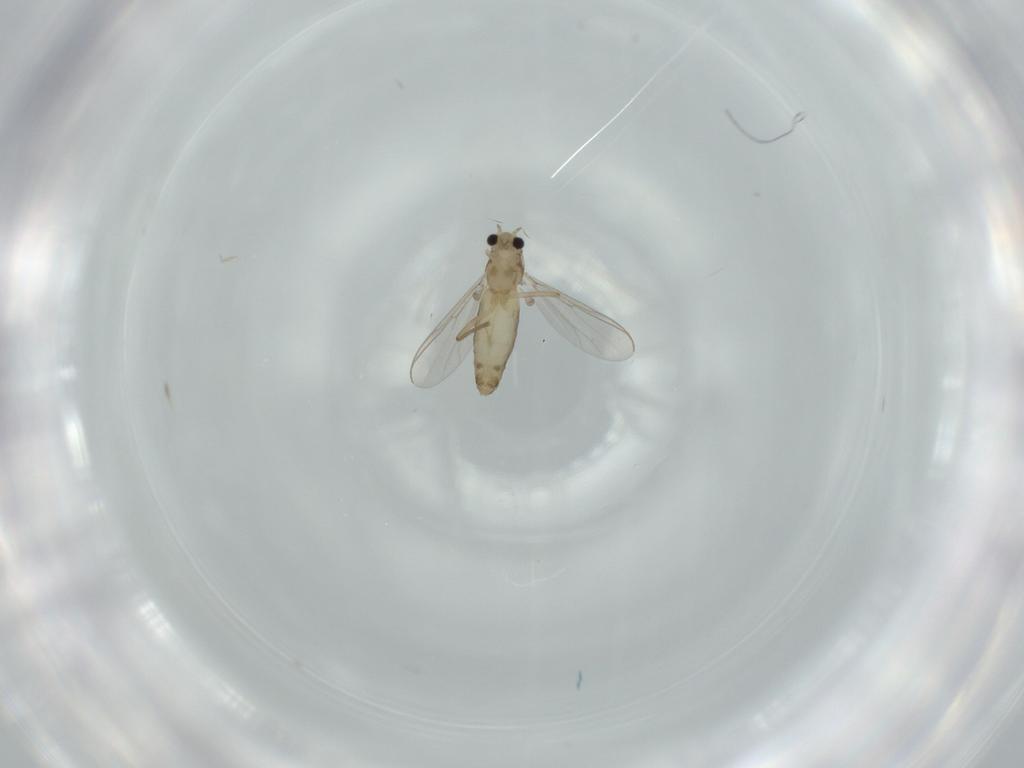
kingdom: Animalia
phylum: Arthropoda
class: Insecta
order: Diptera
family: Chironomidae
